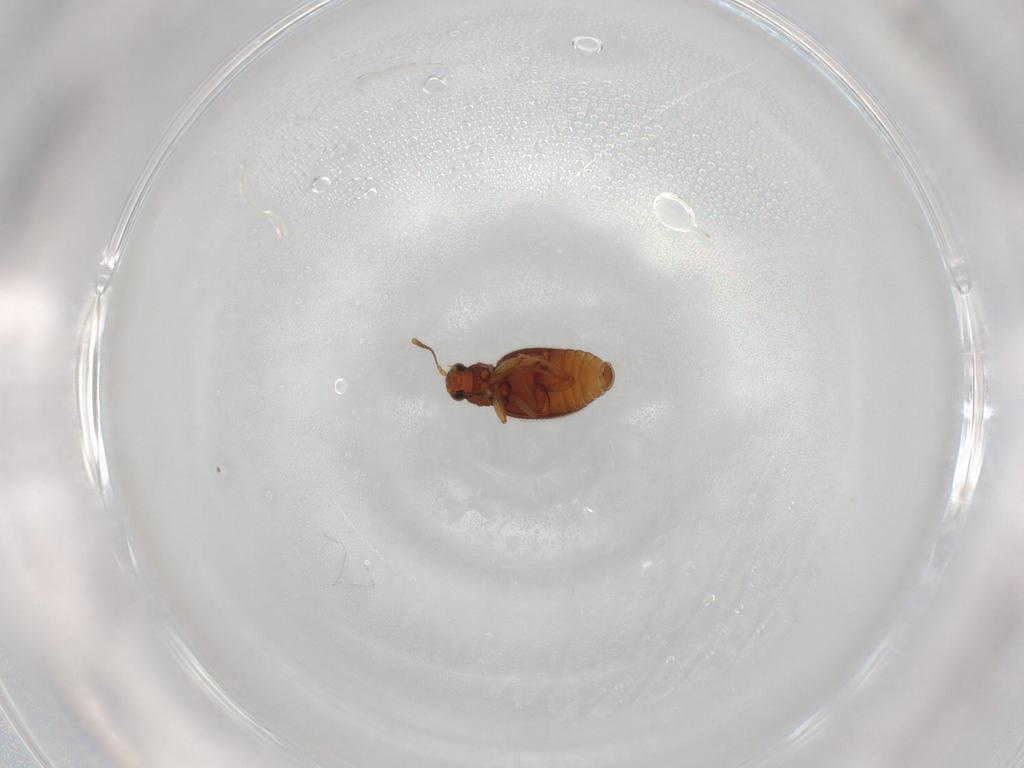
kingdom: Animalia
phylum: Arthropoda
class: Insecta
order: Coleoptera
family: Latridiidae
